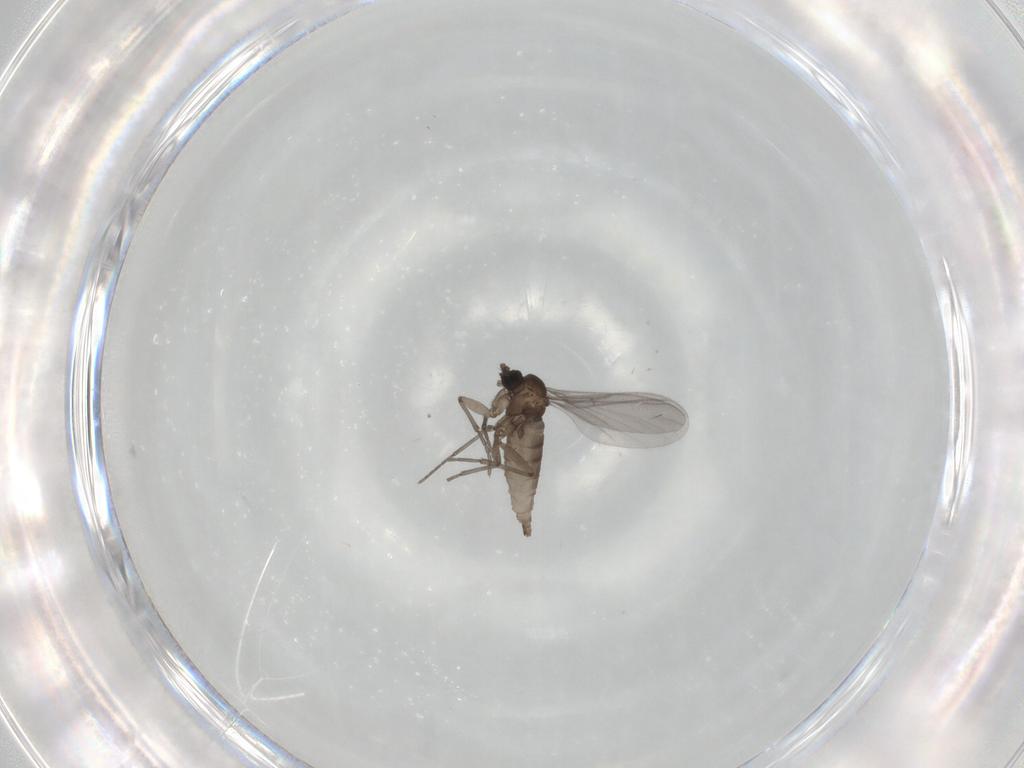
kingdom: Animalia
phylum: Arthropoda
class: Insecta
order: Diptera
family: Sciaridae
